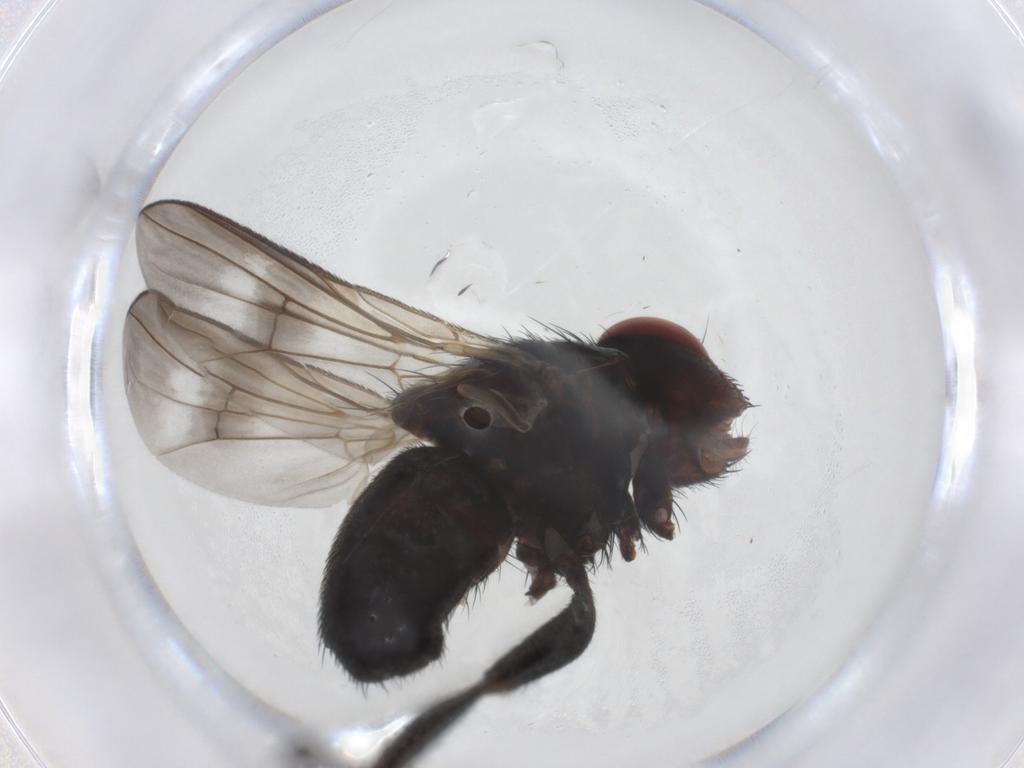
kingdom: Animalia
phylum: Arthropoda
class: Insecta
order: Diptera
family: Calliphoridae
